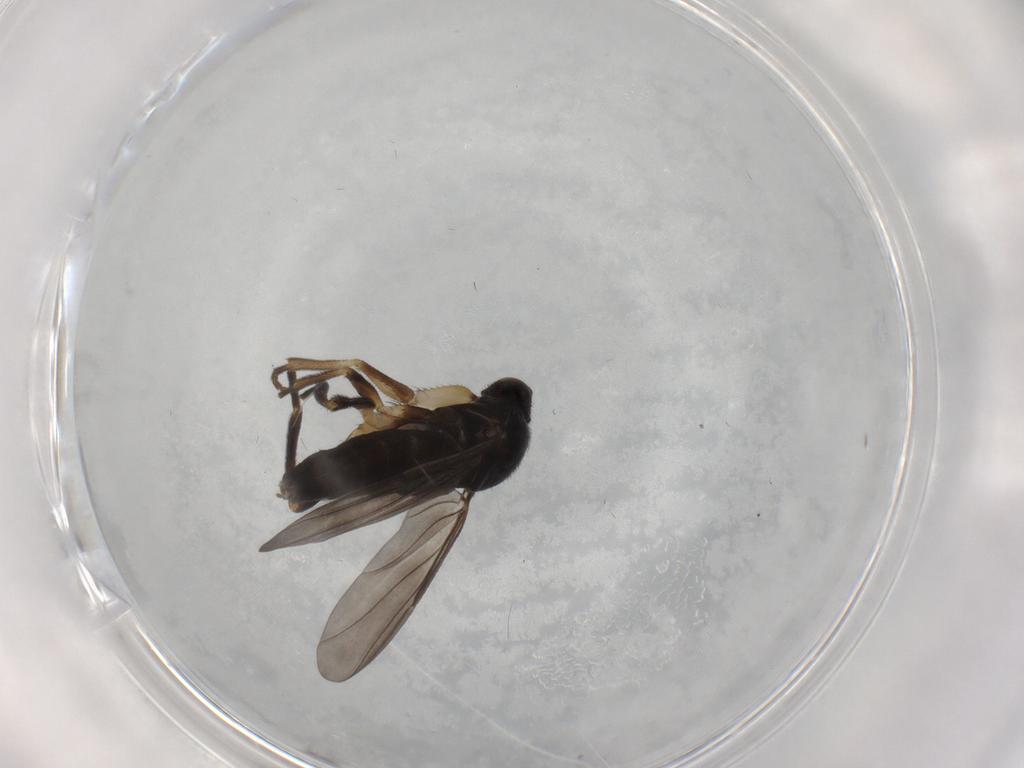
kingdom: Animalia
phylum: Arthropoda
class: Insecta
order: Diptera
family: Phoridae
